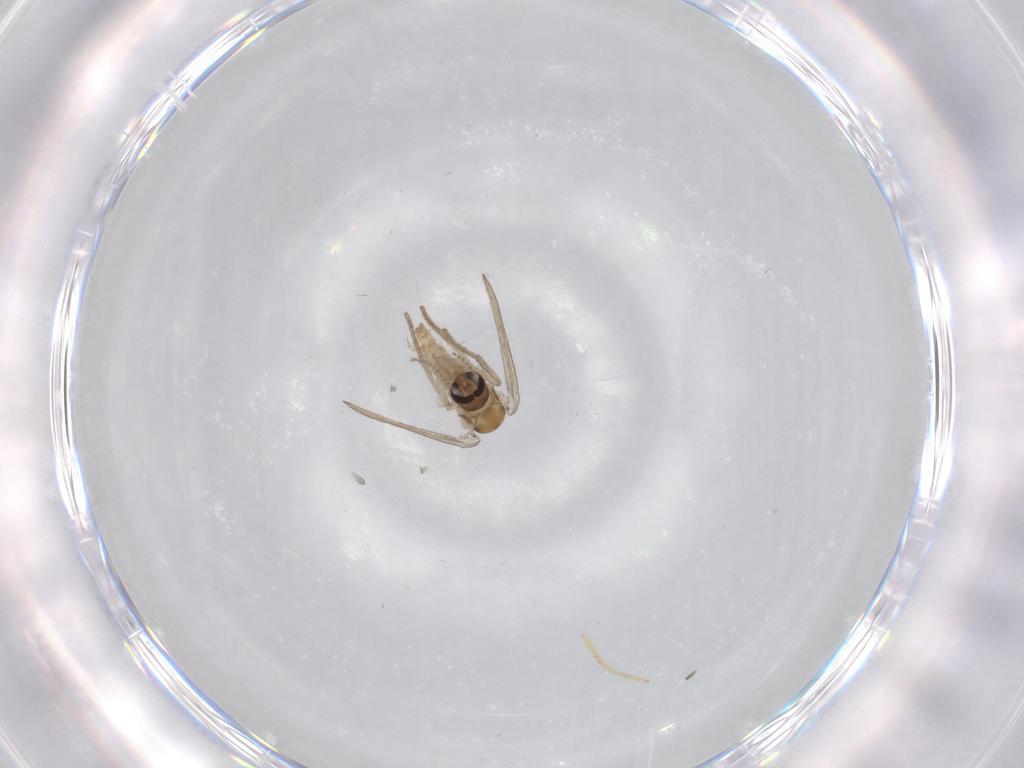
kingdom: Animalia
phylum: Arthropoda
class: Insecta
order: Diptera
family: Psychodidae
